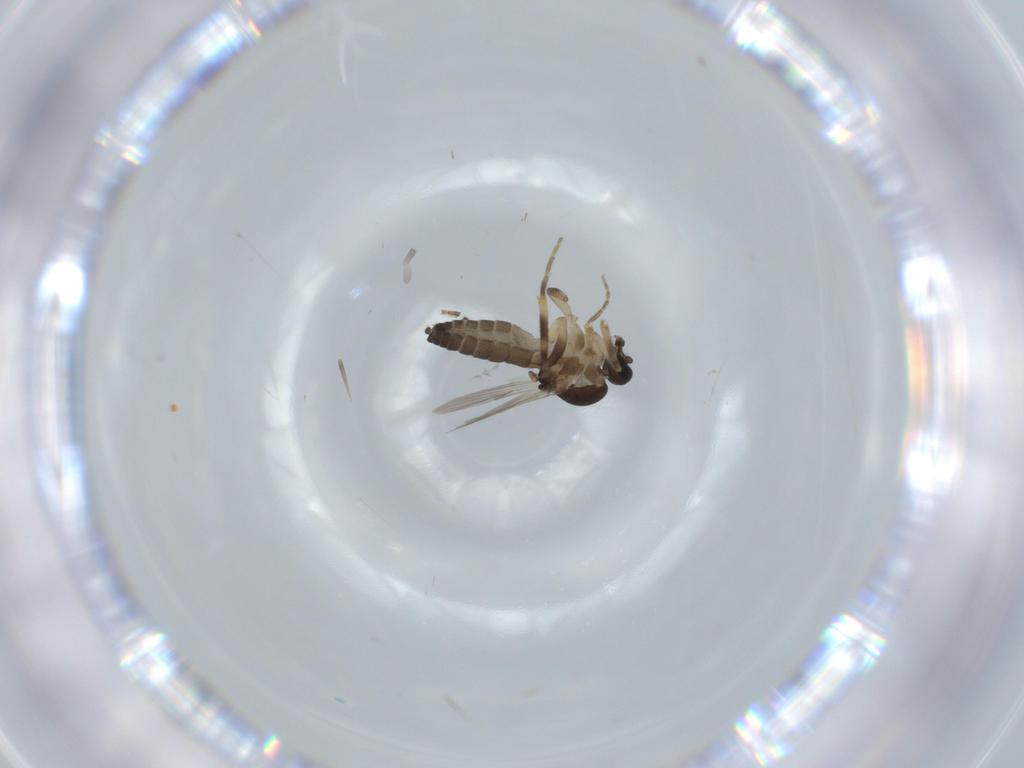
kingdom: Animalia
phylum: Arthropoda
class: Insecta
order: Diptera
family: Ceratopogonidae
